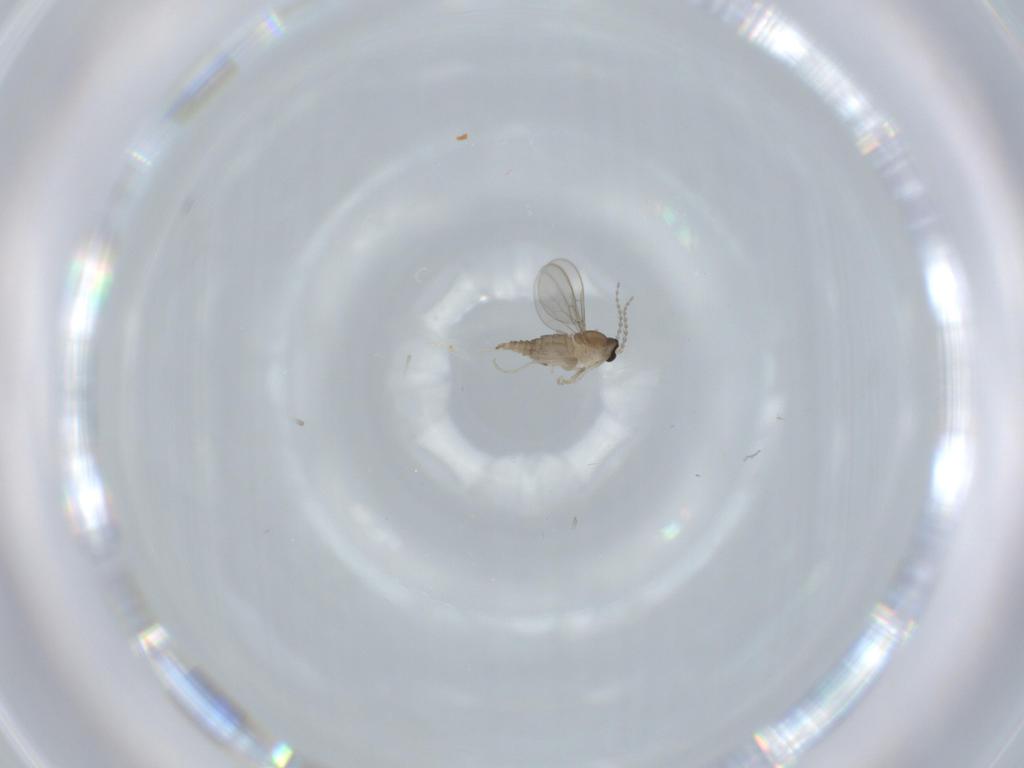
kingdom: Animalia
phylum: Arthropoda
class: Insecta
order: Diptera
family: Cecidomyiidae
